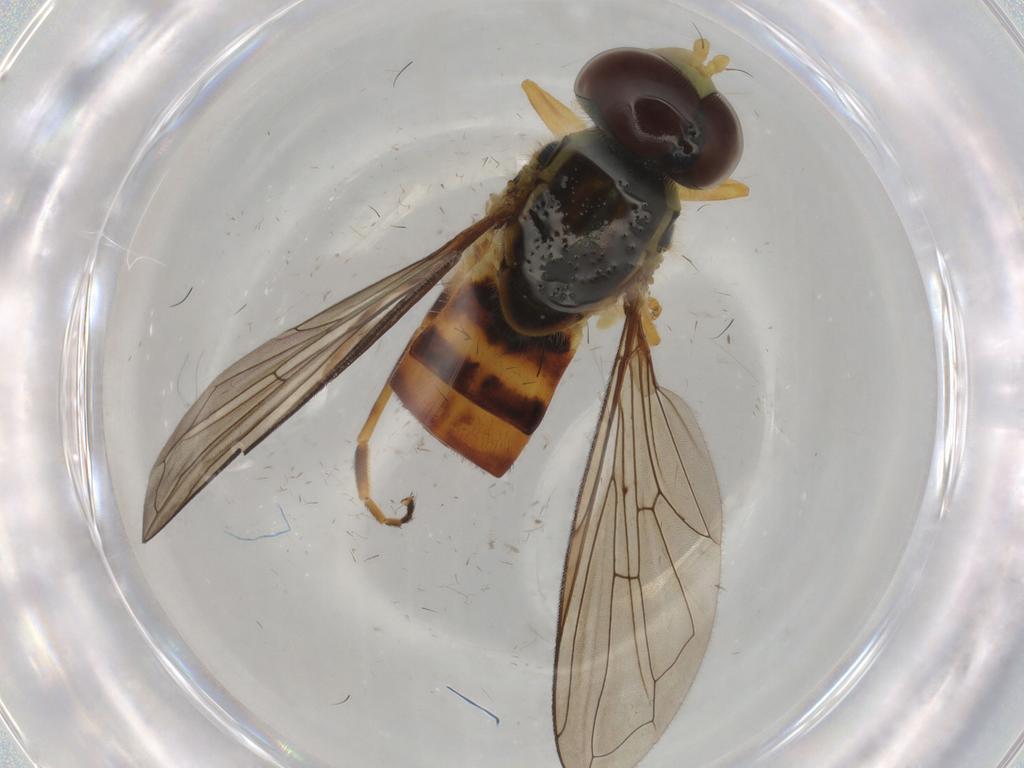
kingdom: Animalia
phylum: Arthropoda
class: Insecta
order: Diptera
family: Syrphidae
